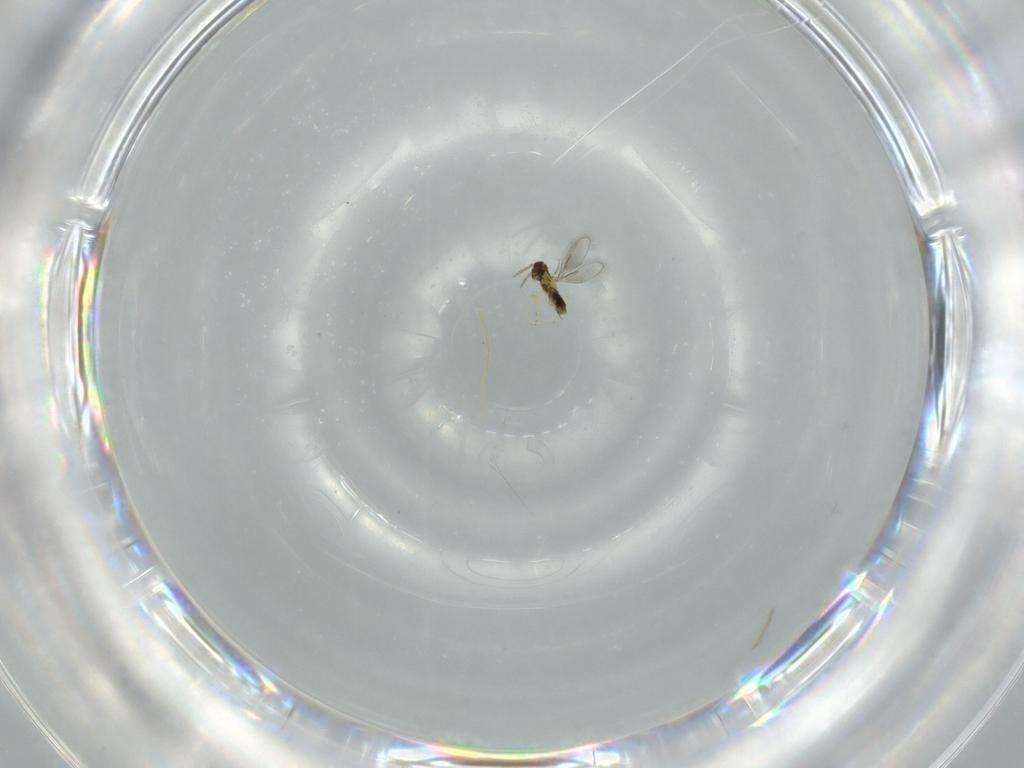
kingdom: Animalia
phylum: Arthropoda
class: Insecta
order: Hymenoptera
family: Aphelinidae
